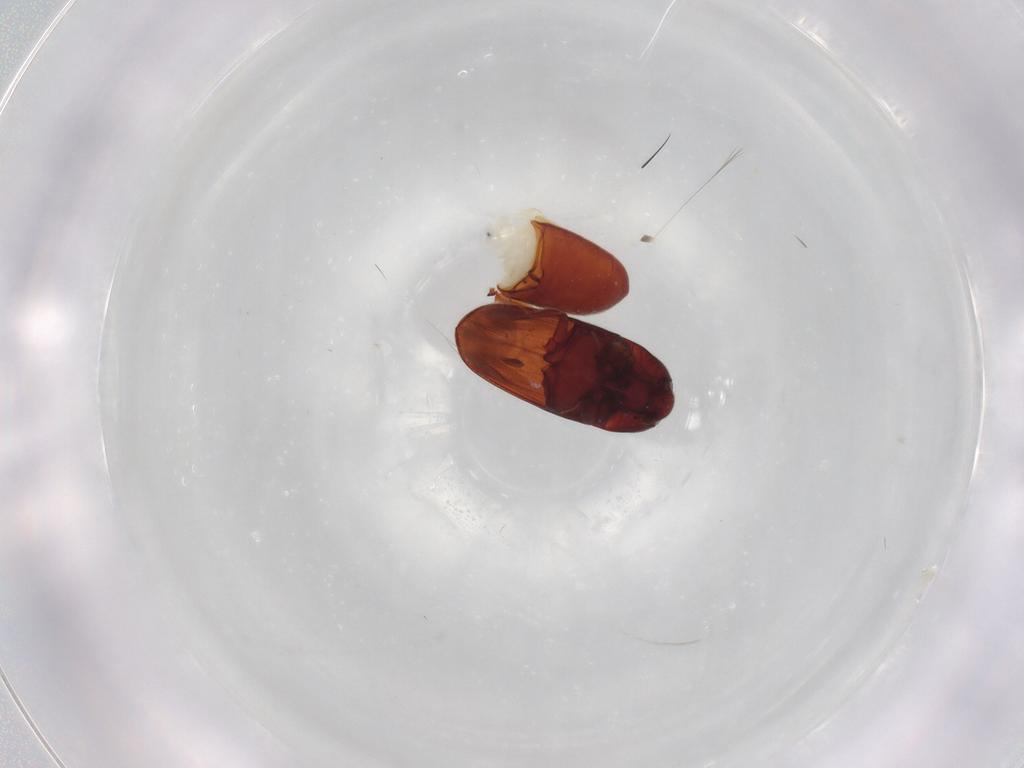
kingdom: Animalia
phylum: Arthropoda
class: Insecta
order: Coleoptera
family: Throscidae
